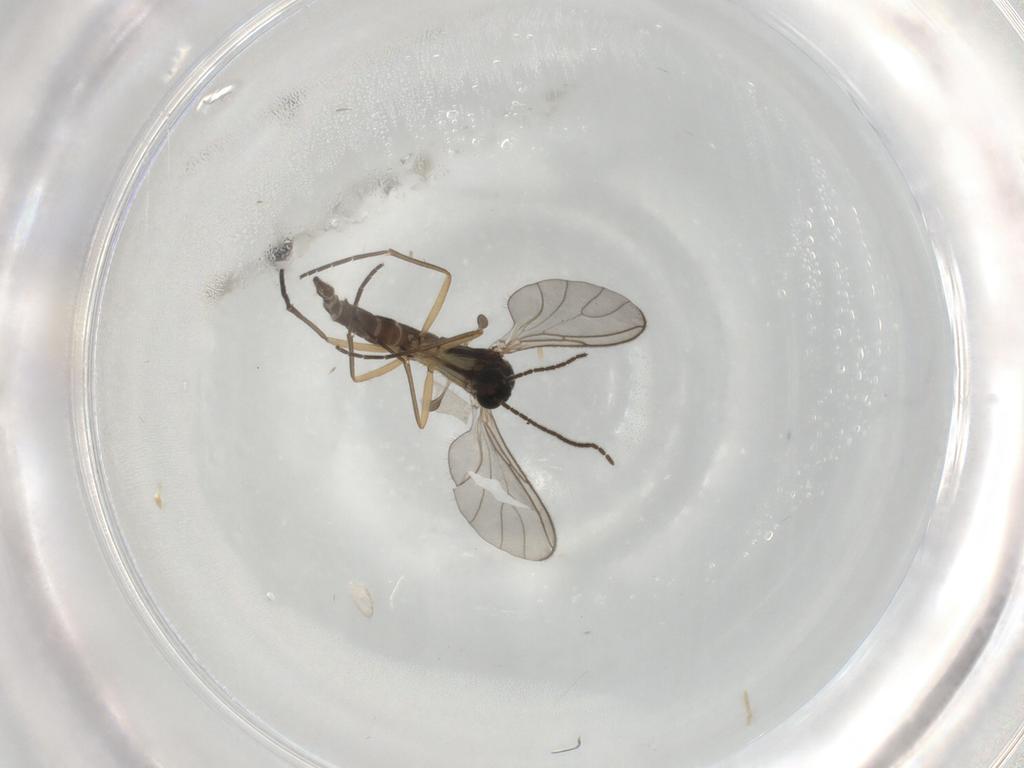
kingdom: Animalia
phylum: Arthropoda
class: Insecta
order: Diptera
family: Sciaridae
